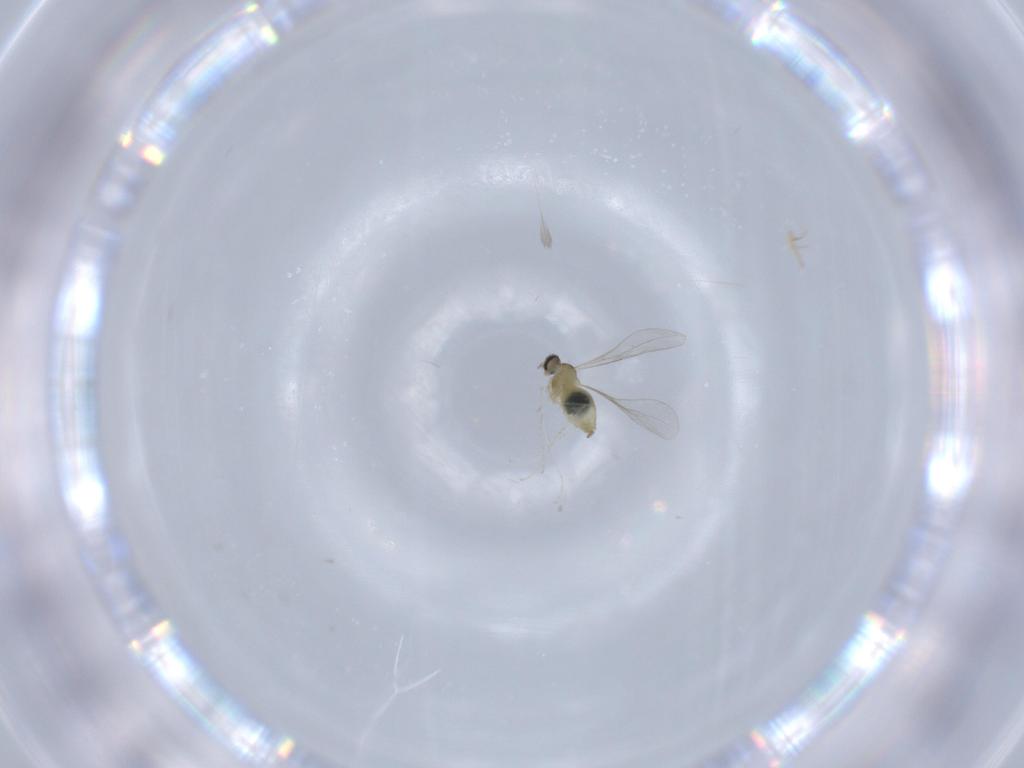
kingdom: Animalia
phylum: Arthropoda
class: Insecta
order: Diptera
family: Cecidomyiidae
